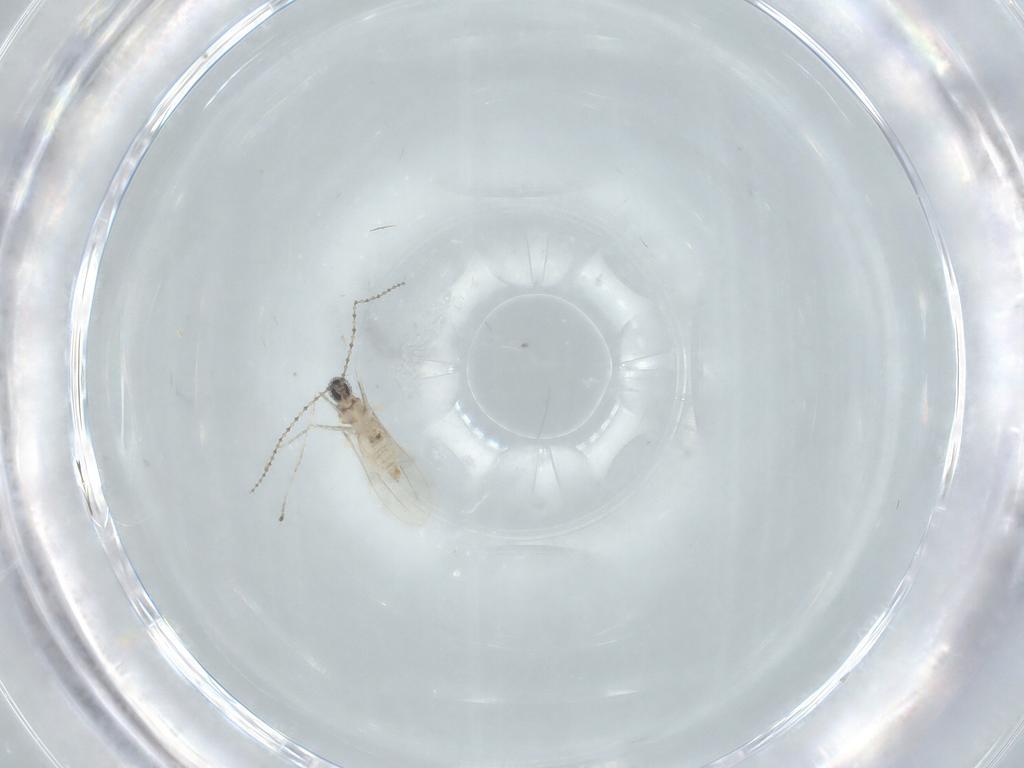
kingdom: Animalia
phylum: Arthropoda
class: Insecta
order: Diptera
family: Cecidomyiidae
